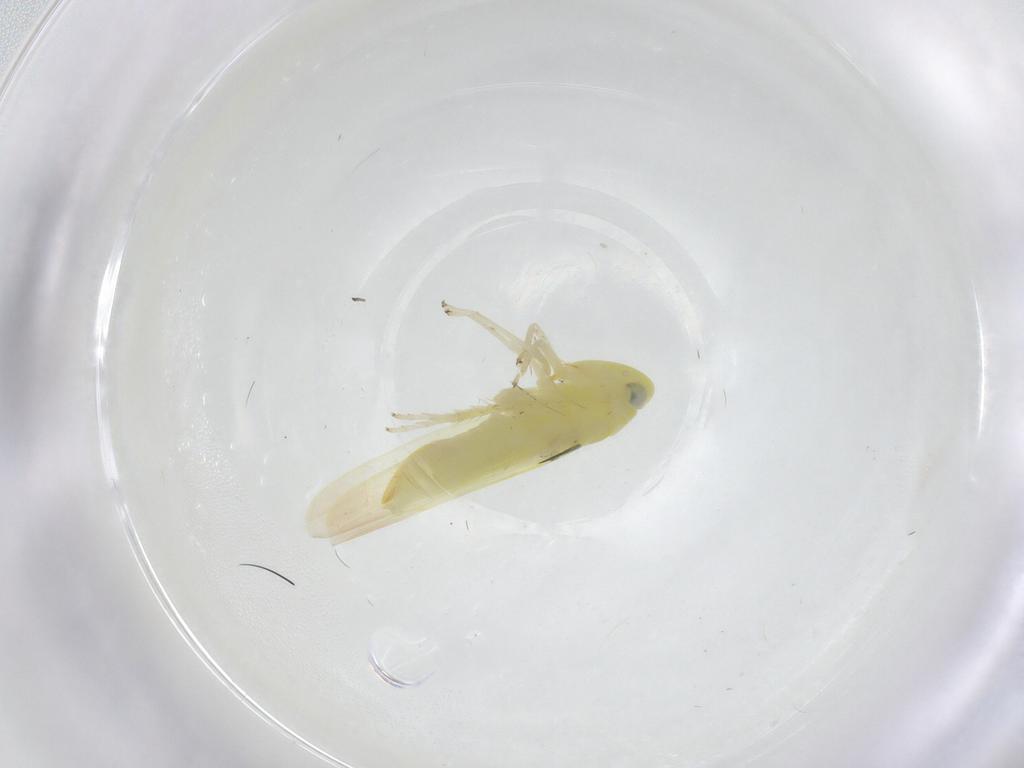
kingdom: Animalia
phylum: Arthropoda
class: Insecta
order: Hemiptera
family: Cicadellidae
